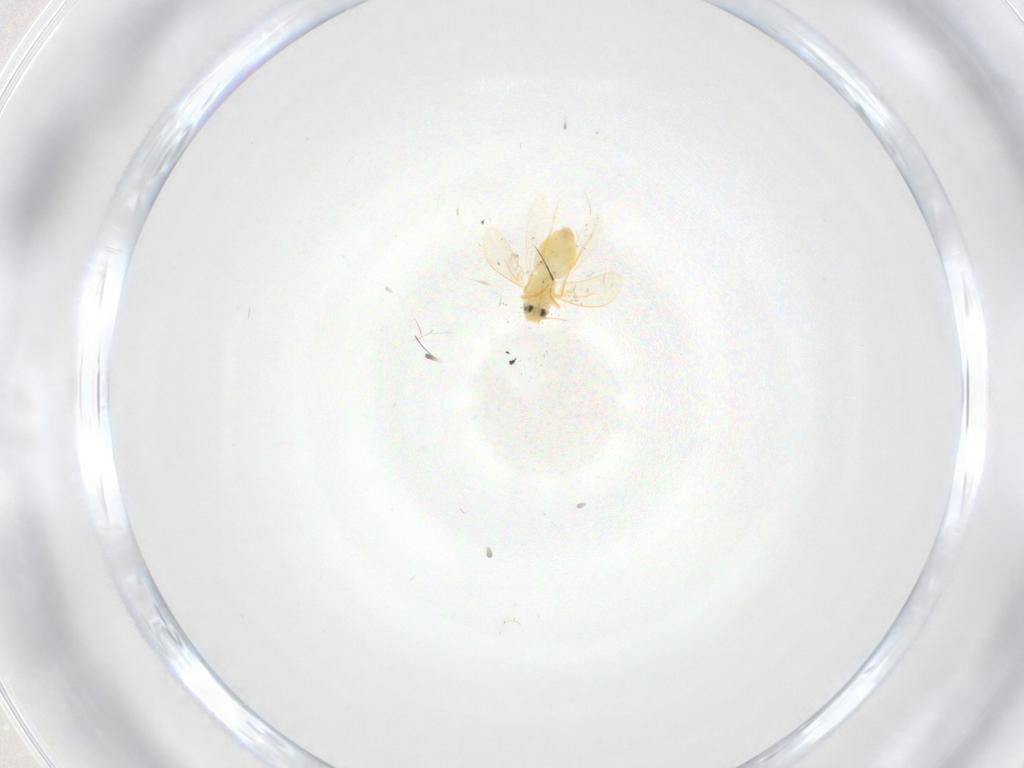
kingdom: Animalia
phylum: Arthropoda
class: Insecta
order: Hemiptera
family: Aleyrodidae
